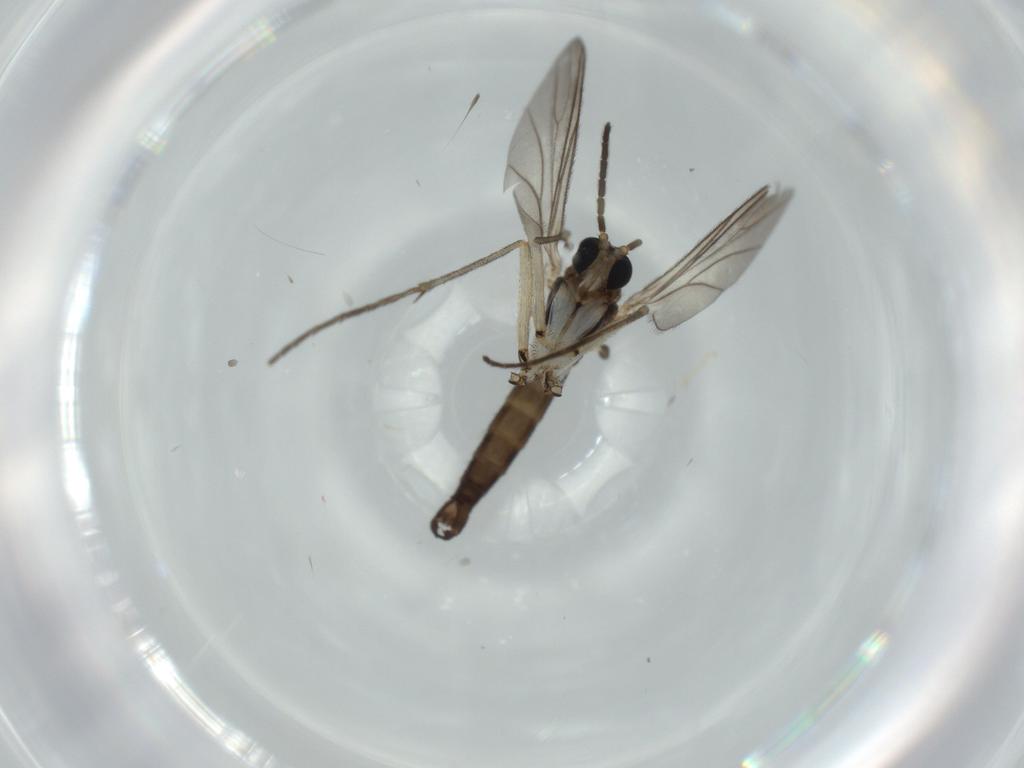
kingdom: Animalia
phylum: Arthropoda
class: Insecta
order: Diptera
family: Sciaridae
